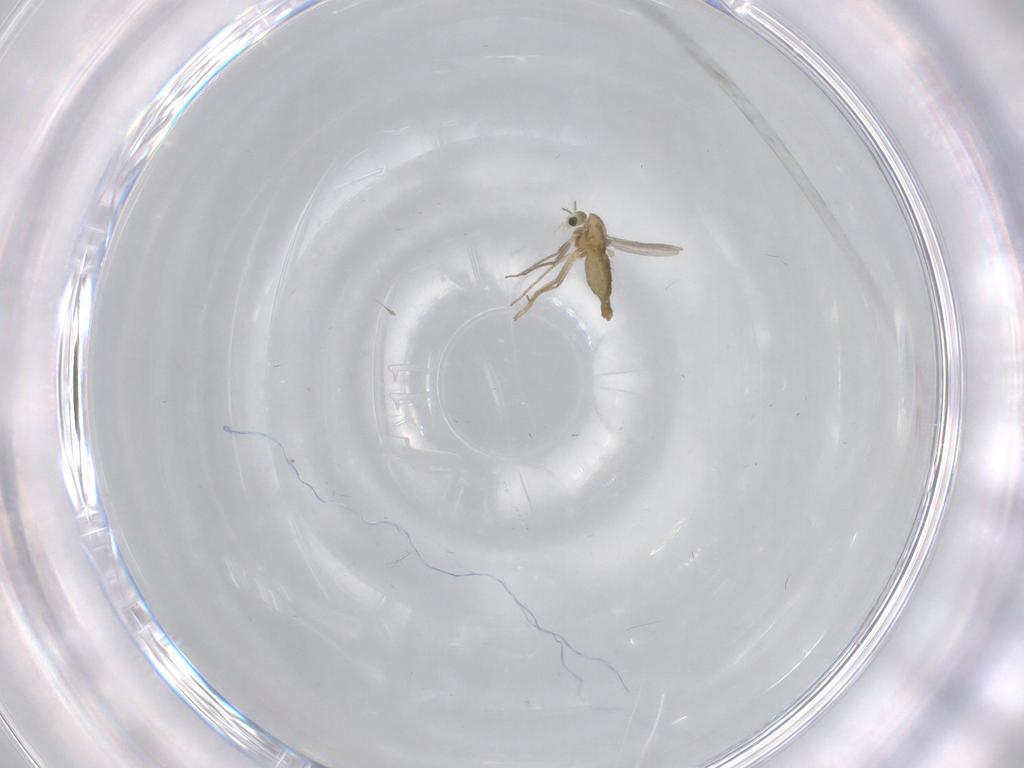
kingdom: Animalia
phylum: Arthropoda
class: Insecta
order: Diptera
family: Chironomidae
